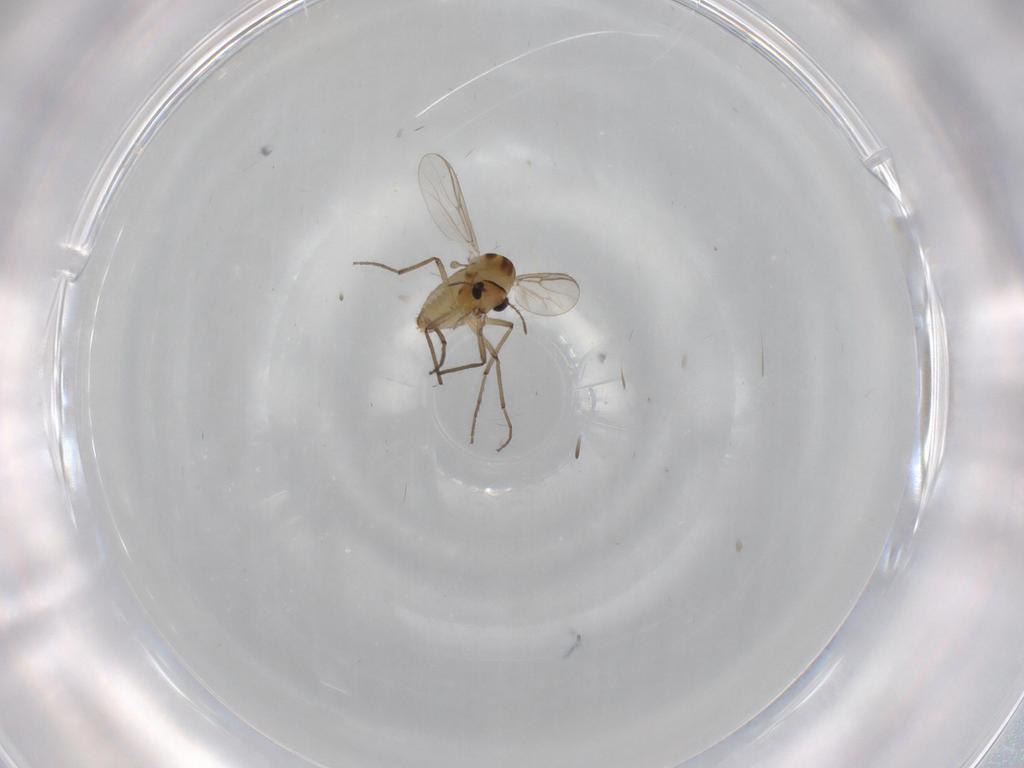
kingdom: Animalia
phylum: Arthropoda
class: Insecta
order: Diptera
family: Chironomidae
